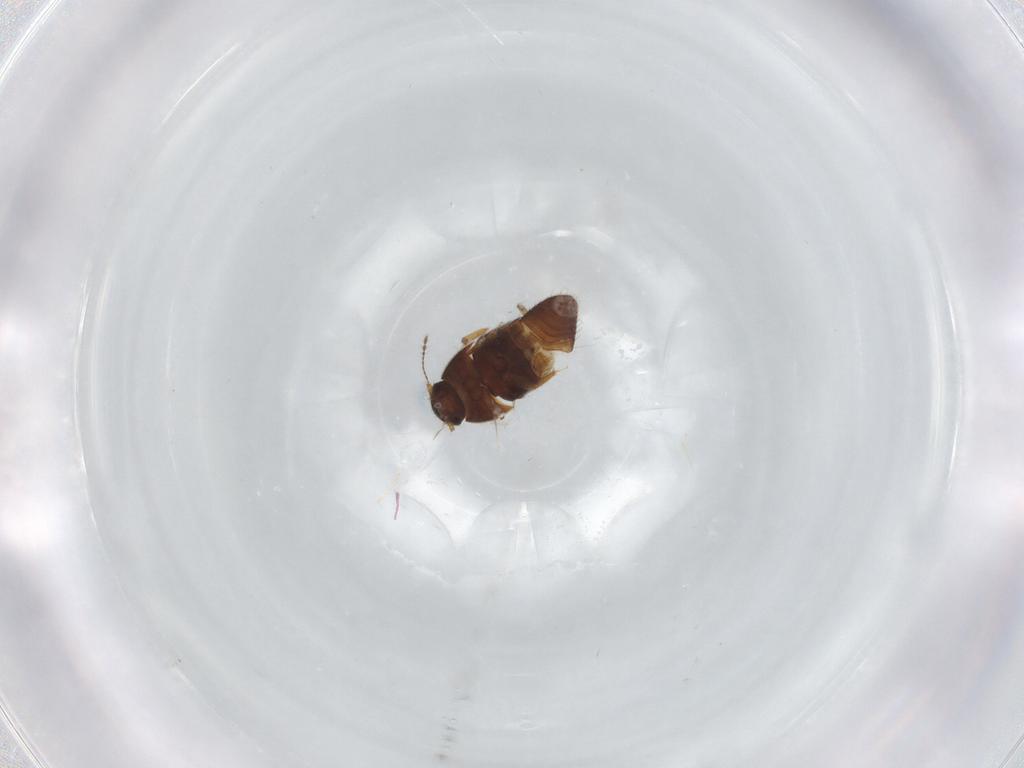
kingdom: Animalia
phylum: Arthropoda
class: Insecta
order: Coleoptera
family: Ptiliidae
